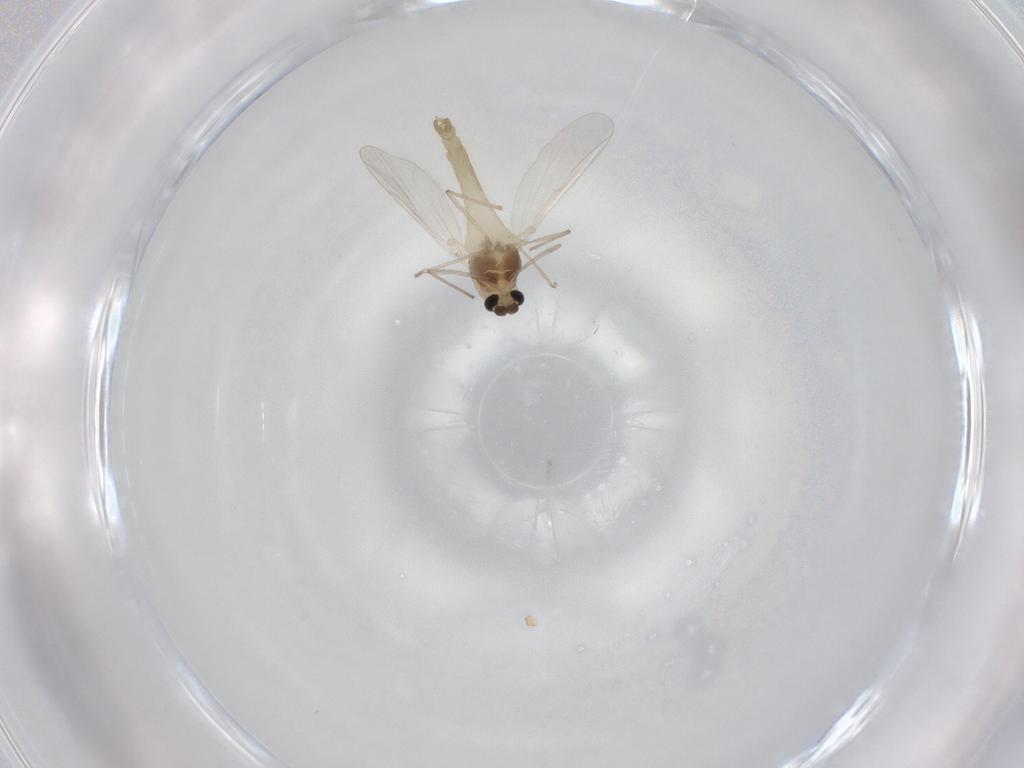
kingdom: Animalia
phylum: Arthropoda
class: Insecta
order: Diptera
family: Chironomidae
